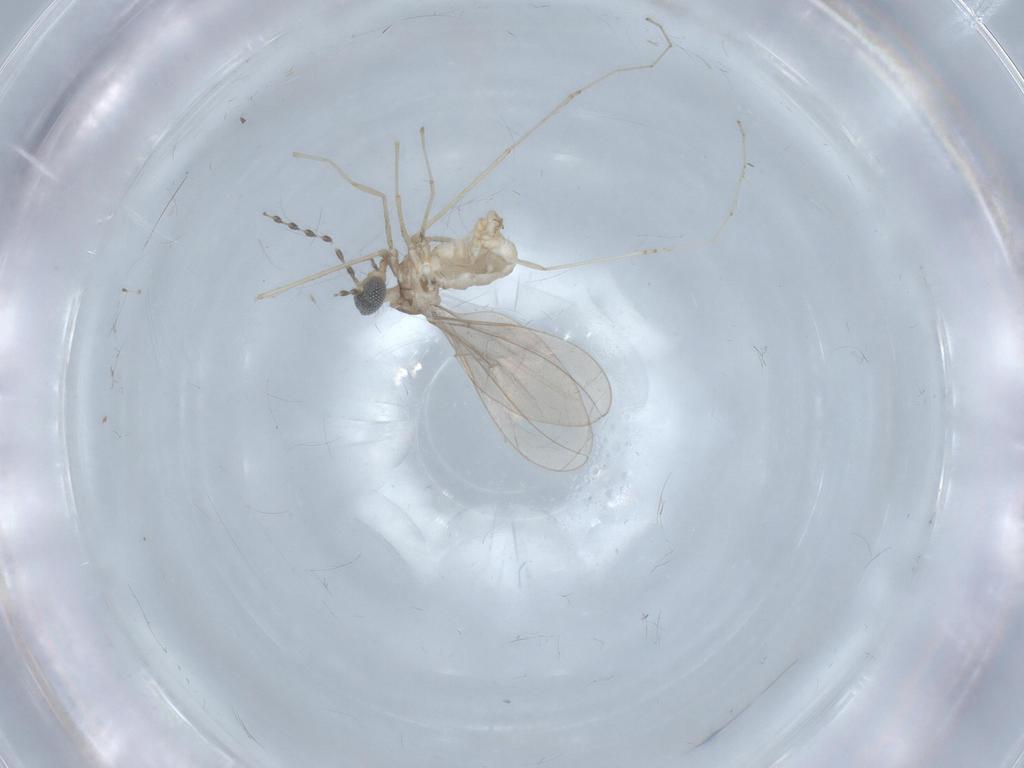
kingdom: Animalia
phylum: Arthropoda
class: Insecta
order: Diptera
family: Cecidomyiidae
